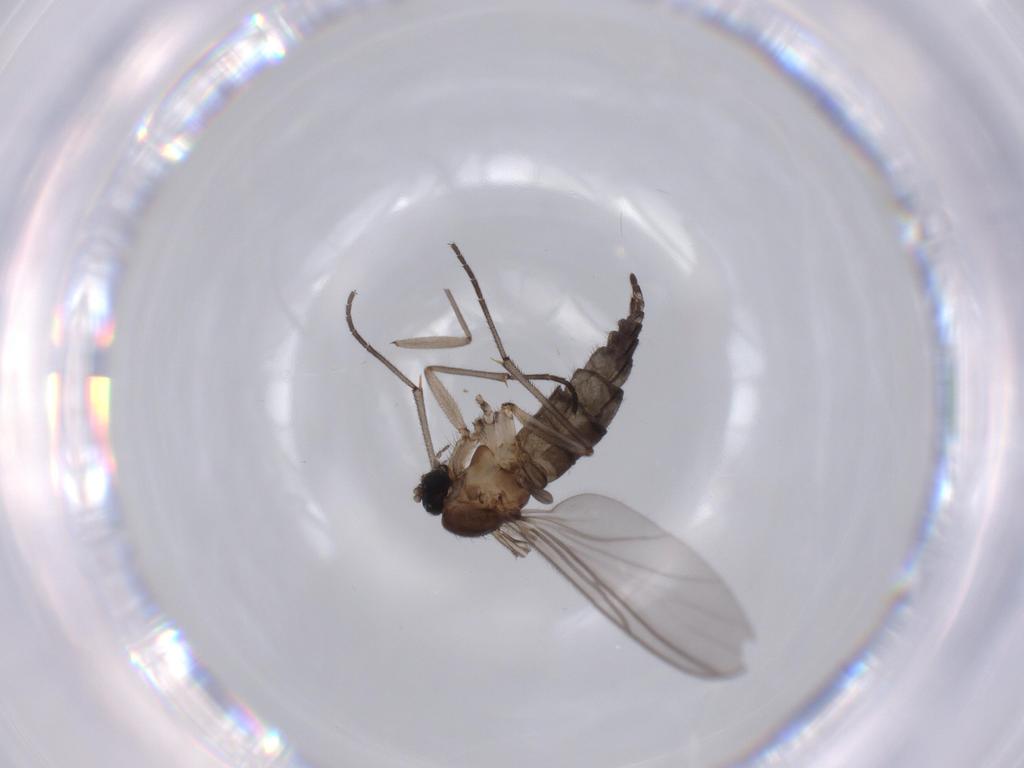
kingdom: Animalia
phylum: Arthropoda
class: Insecta
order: Diptera
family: Sciaridae
